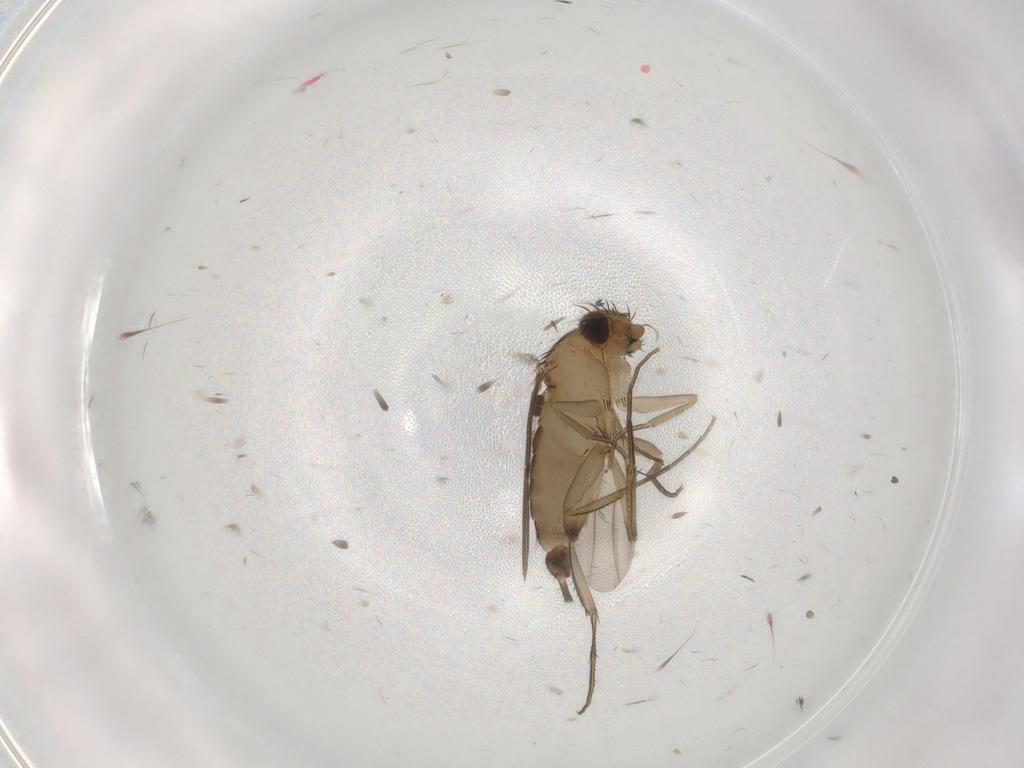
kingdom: Animalia
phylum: Arthropoda
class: Insecta
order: Diptera
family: Phoridae
